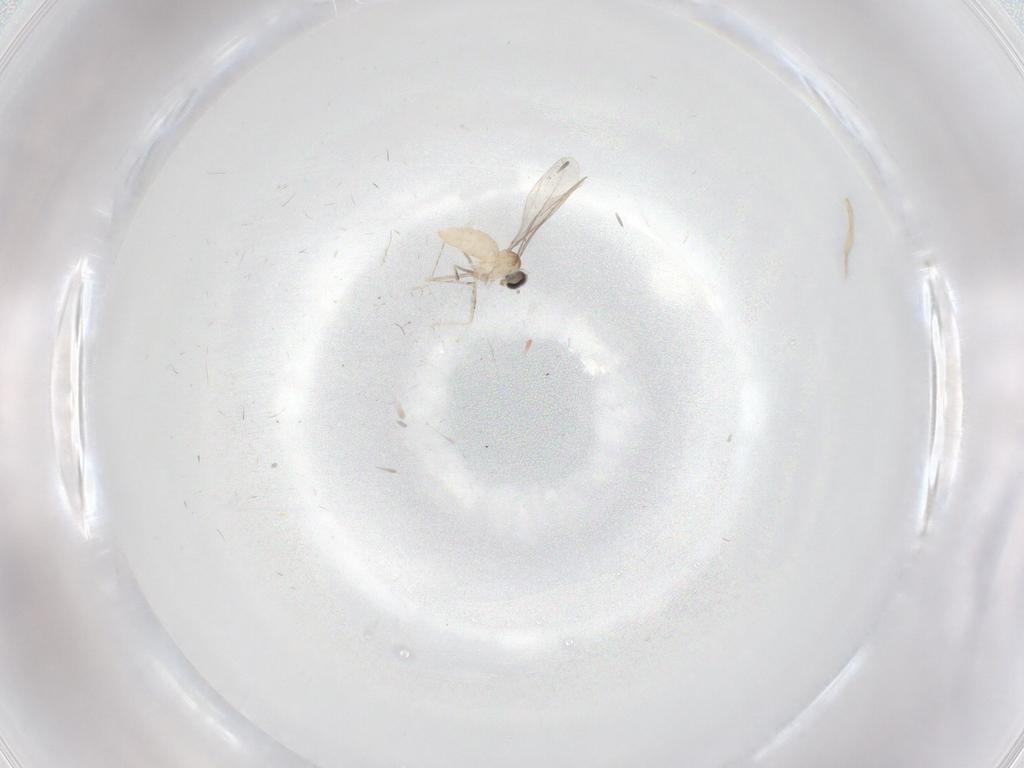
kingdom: Animalia
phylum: Arthropoda
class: Insecta
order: Diptera
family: Cecidomyiidae
